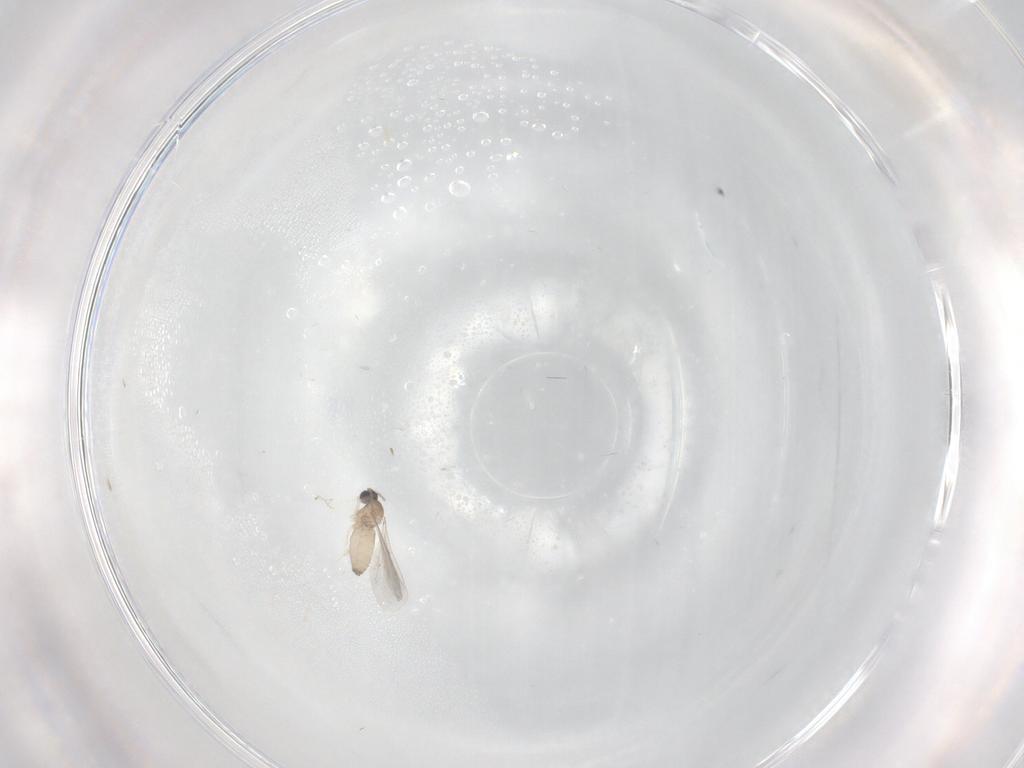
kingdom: Animalia
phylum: Arthropoda
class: Insecta
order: Diptera
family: Cecidomyiidae
